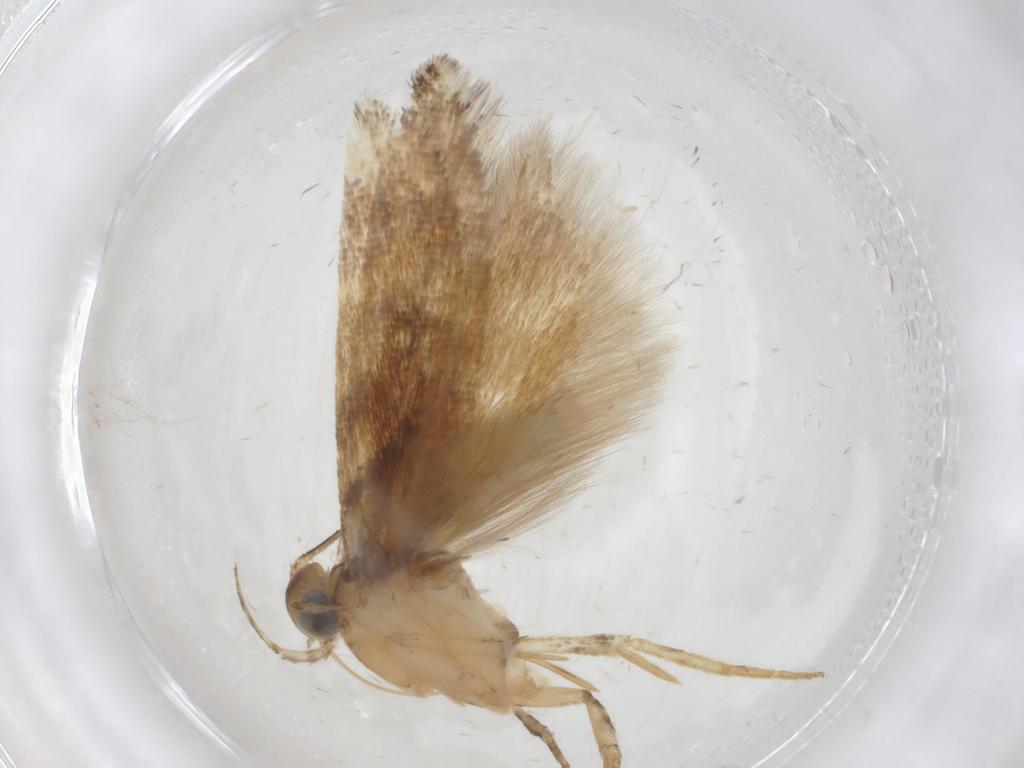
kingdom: Animalia
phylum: Arthropoda
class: Insecta
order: Lepidoptera
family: Gelechiidae
